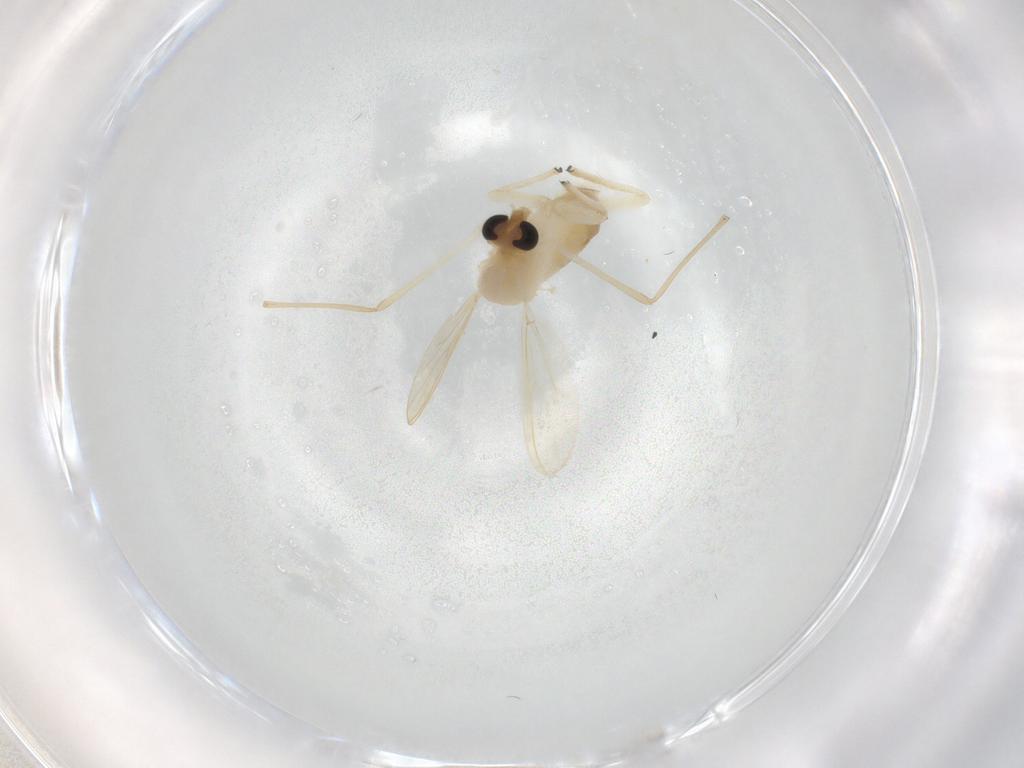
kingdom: Animalia
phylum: Arthropoda
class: Insecta
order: Diptera
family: Chironomidae
